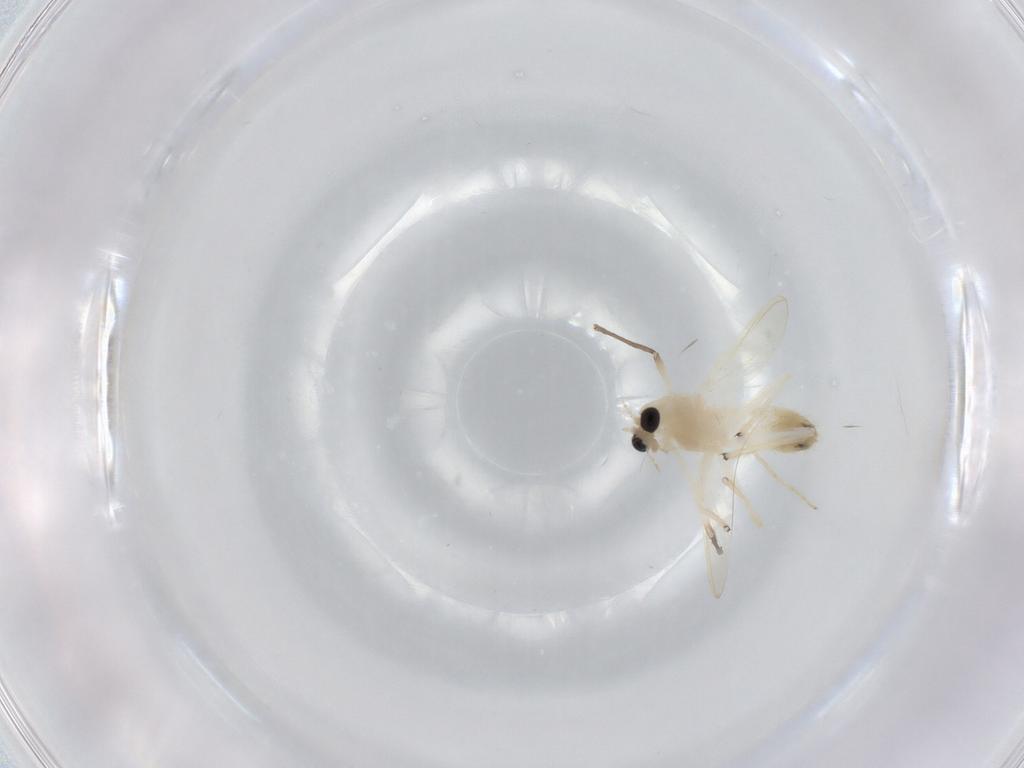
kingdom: Animalia
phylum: Arthropoda
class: Insecta
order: Diptera
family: Chironomidae
